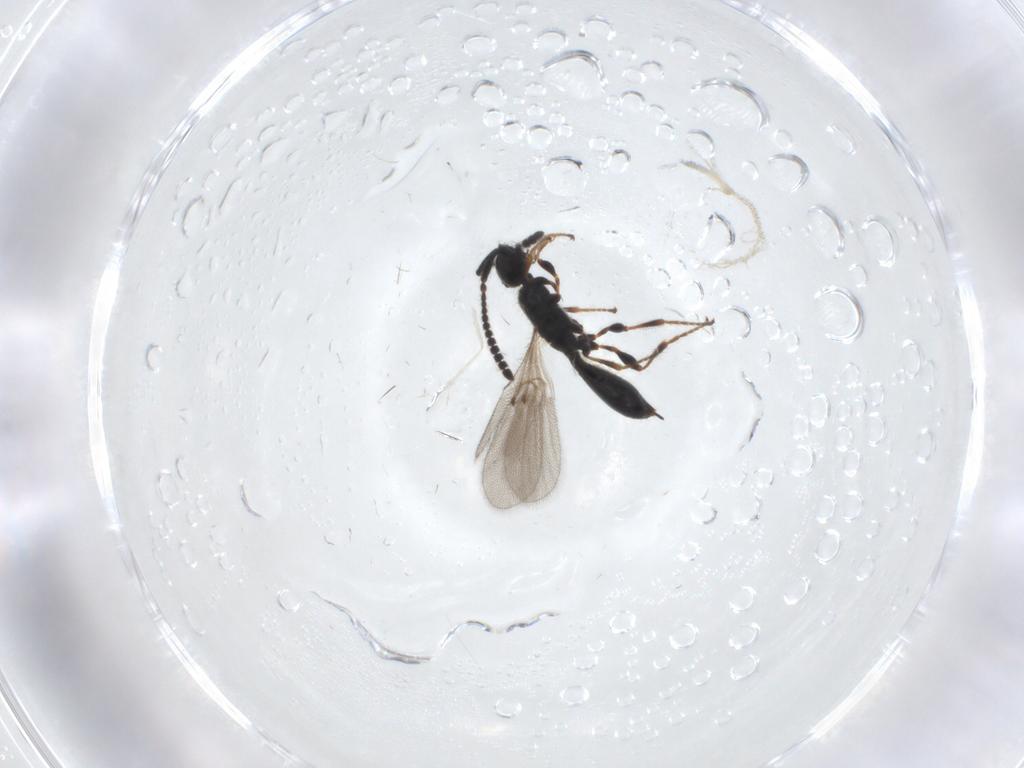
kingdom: Animalia
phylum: Arthropoda
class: Insecta
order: Hymenoptera
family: Diapriidae
